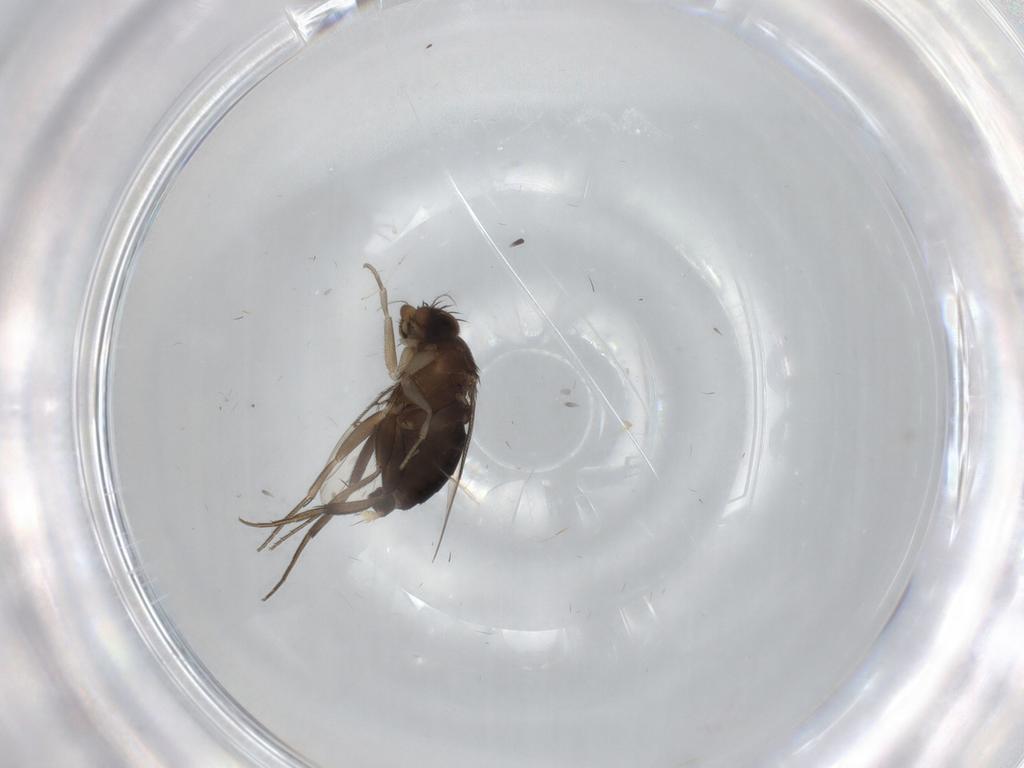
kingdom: Animalia
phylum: Arthropoda
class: Insecta
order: Diptera
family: Phoridae
